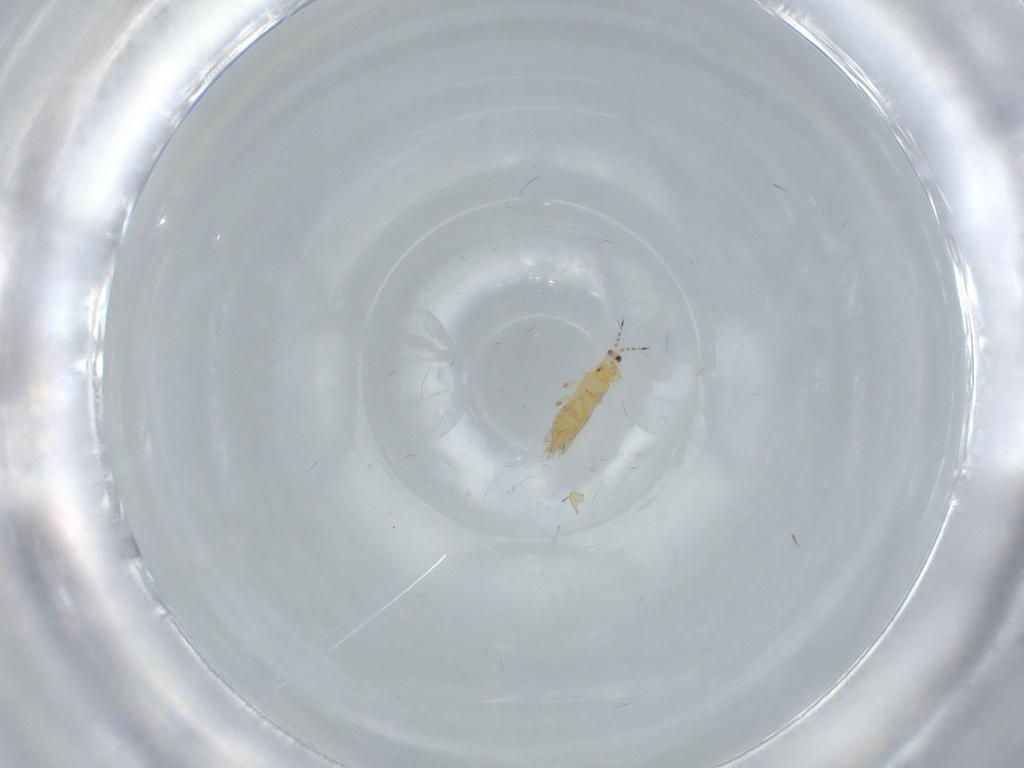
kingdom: Animalia
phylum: Arthropoda
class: Insecta
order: Thysanoptera
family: Thripidae
